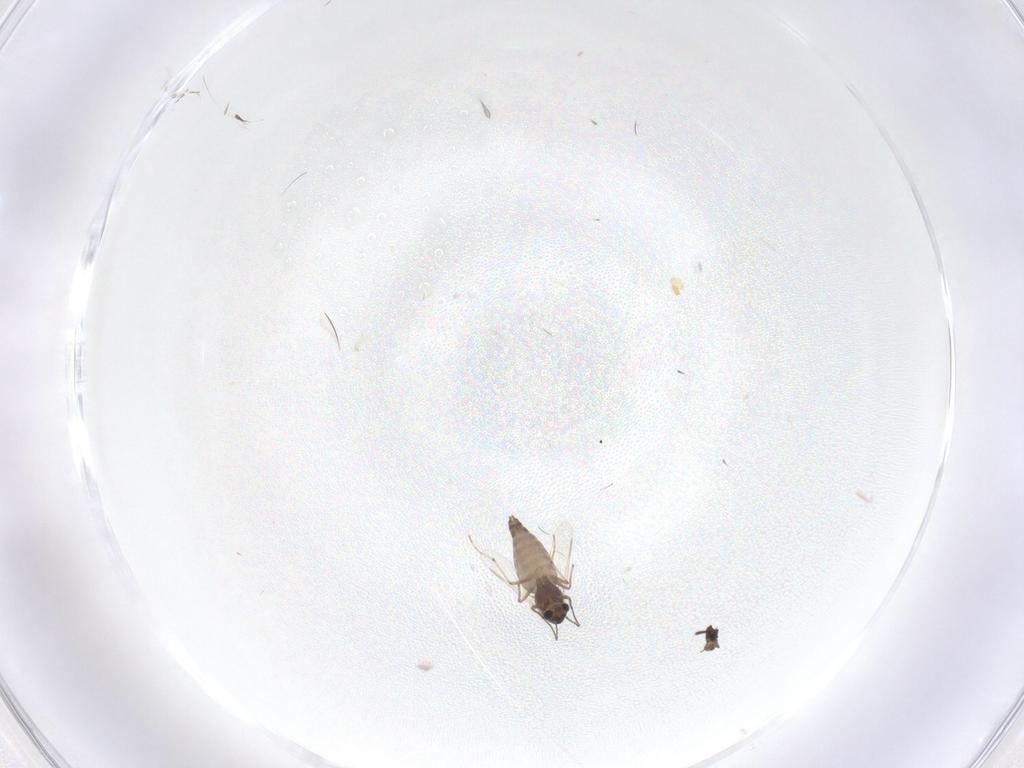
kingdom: Animalia
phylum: Arthropoda
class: Insecta
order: Diptera
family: Chironomidae
